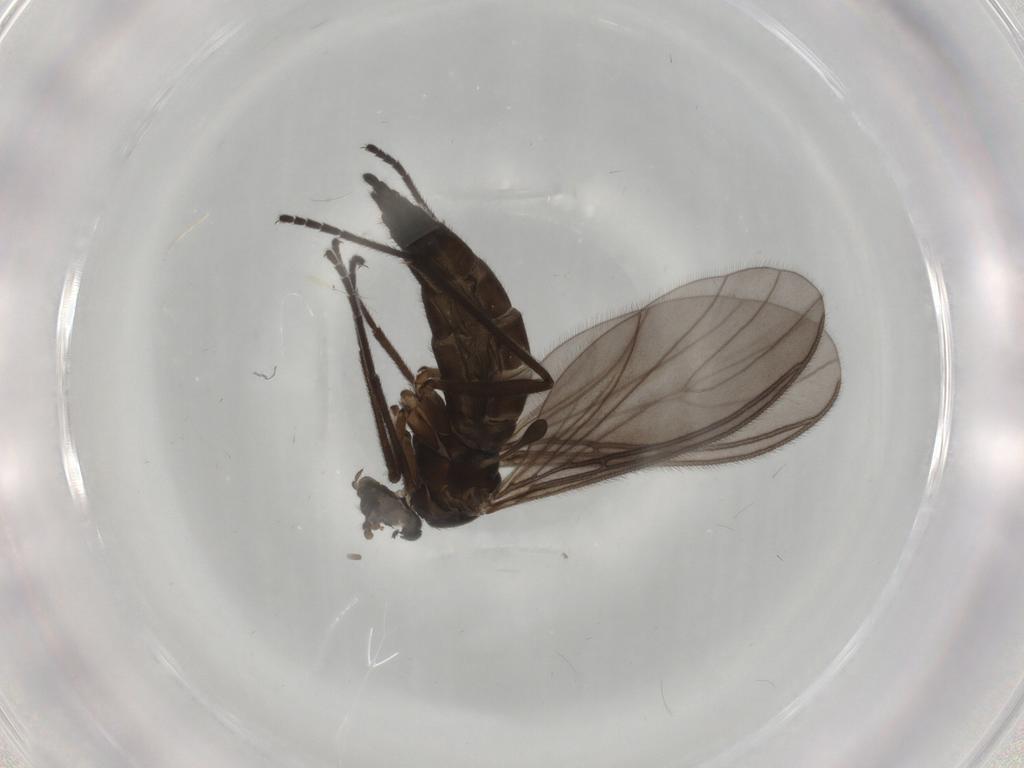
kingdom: Animalia
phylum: Arthropoda
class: Insecta
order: Diptera
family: Sciaridae
